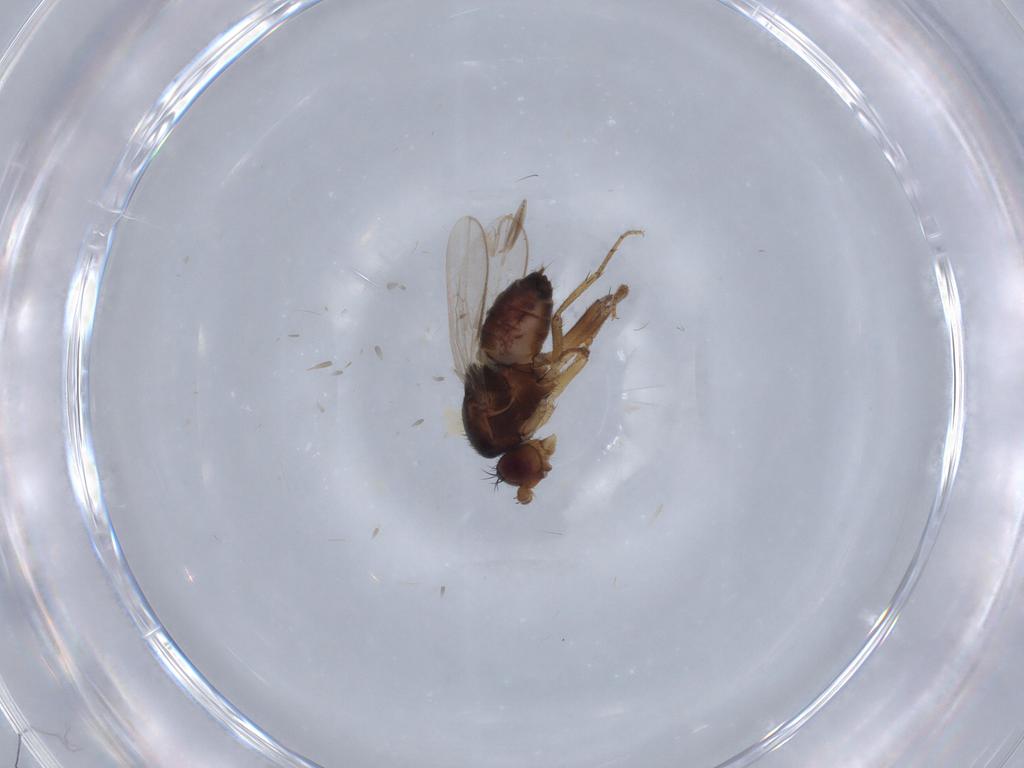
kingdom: Animalia
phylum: Arthropoda
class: Insecta
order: Diptera
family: Ceratopogonidae
